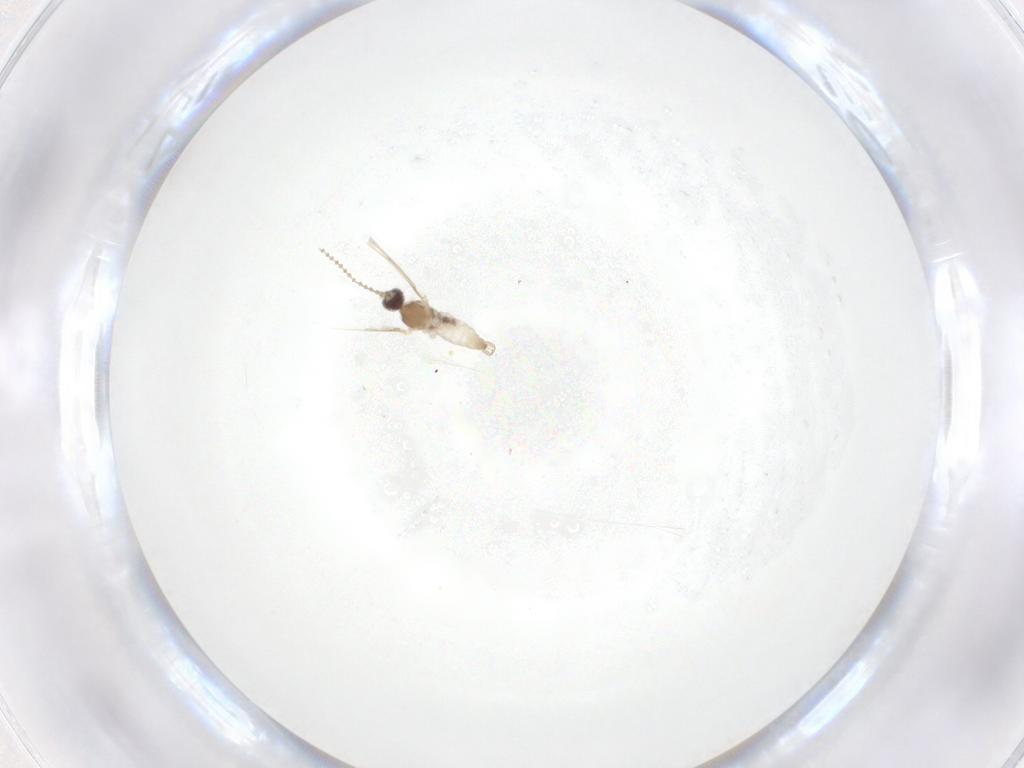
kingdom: Animalia
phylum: Arthropoda
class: Insecta
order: Diptera
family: Cecidomyiidae
